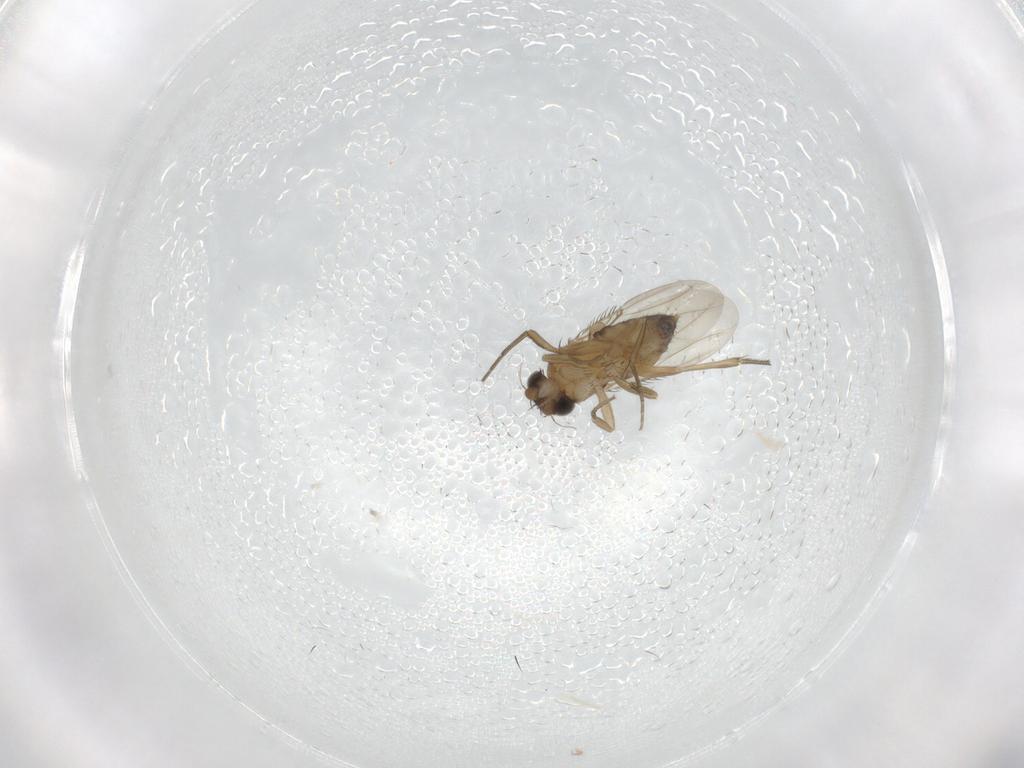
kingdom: Animalia
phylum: Arthropoda
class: Insecta
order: Diptera
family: Phoridae
